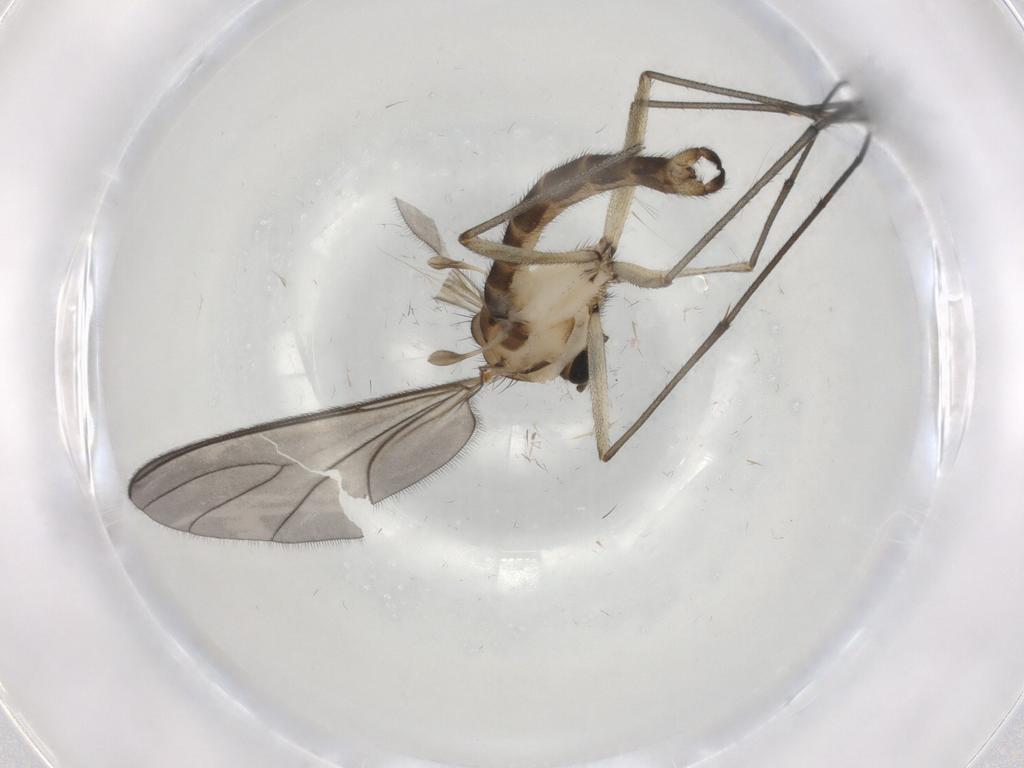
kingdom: Animalia
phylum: Arthropoda
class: Insecta
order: Diptera
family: Sciaridae
